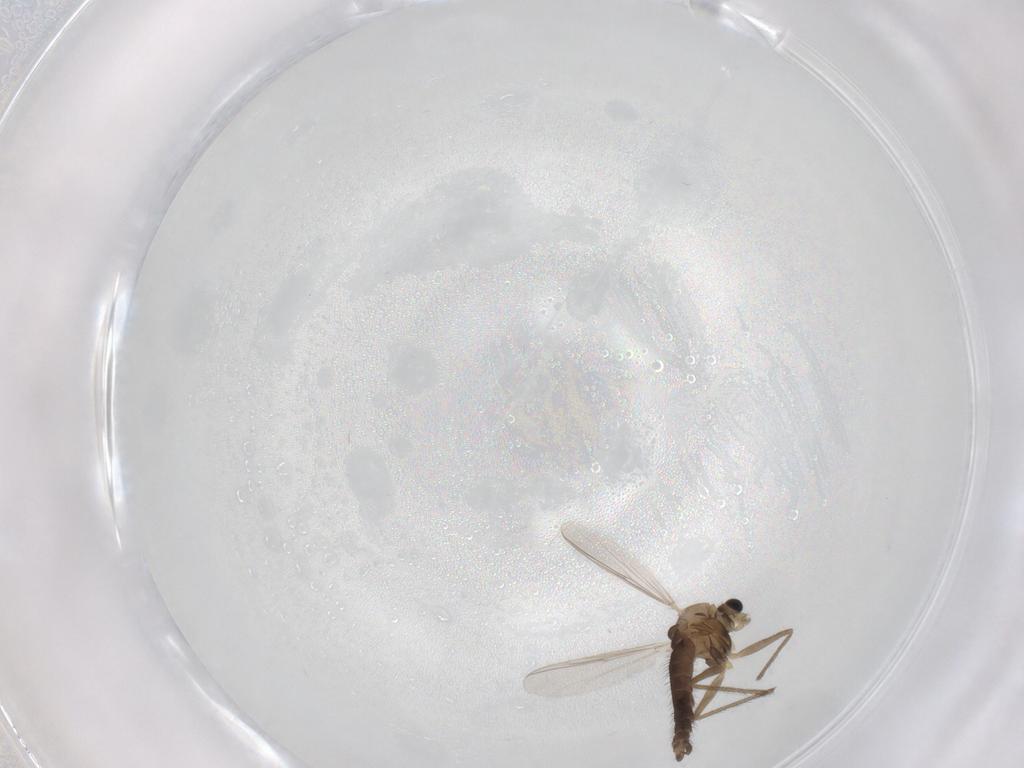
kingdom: Animalia
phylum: Arthropoda
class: Insecta
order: Diptera
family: Chironomidae
